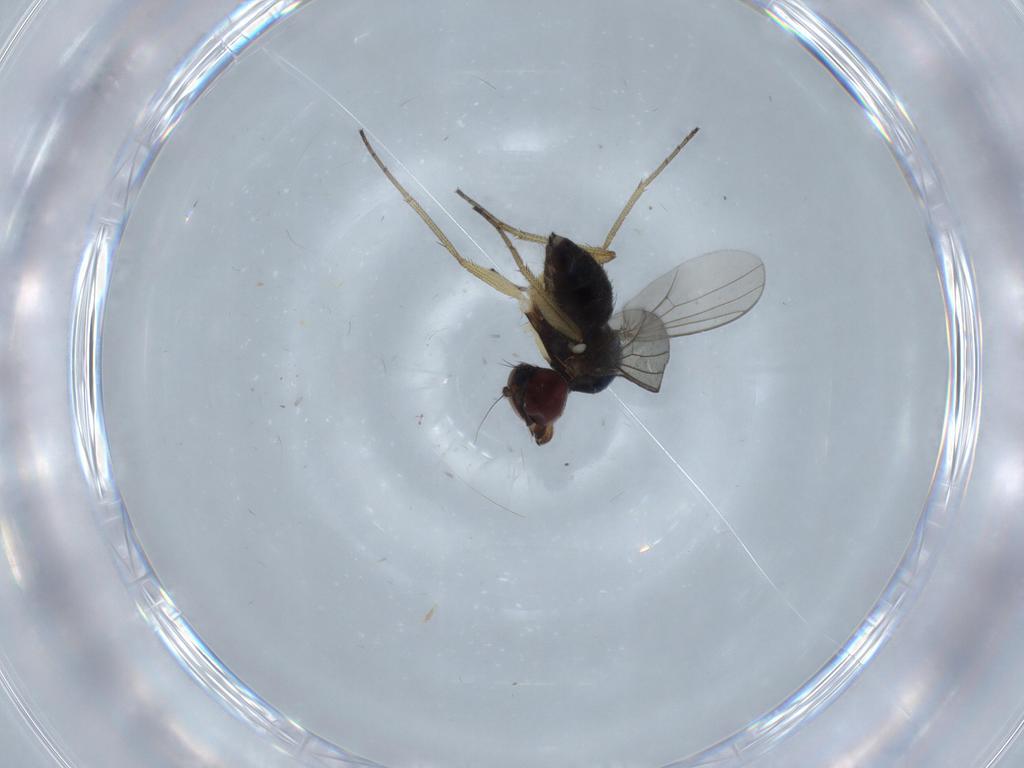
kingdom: Animalia
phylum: Arthropoda
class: Insecta
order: Diptera
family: Dolichopodidae
